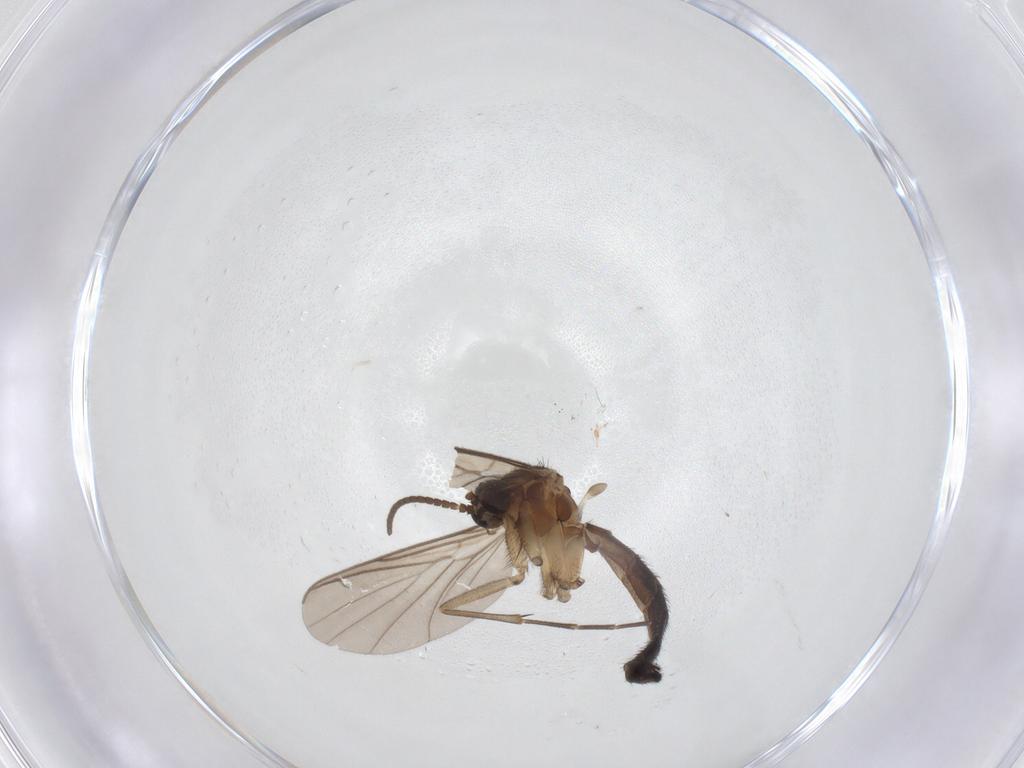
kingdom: Animalia
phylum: Arthropoda
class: Insecta
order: Diptera
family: Keroplatidae
